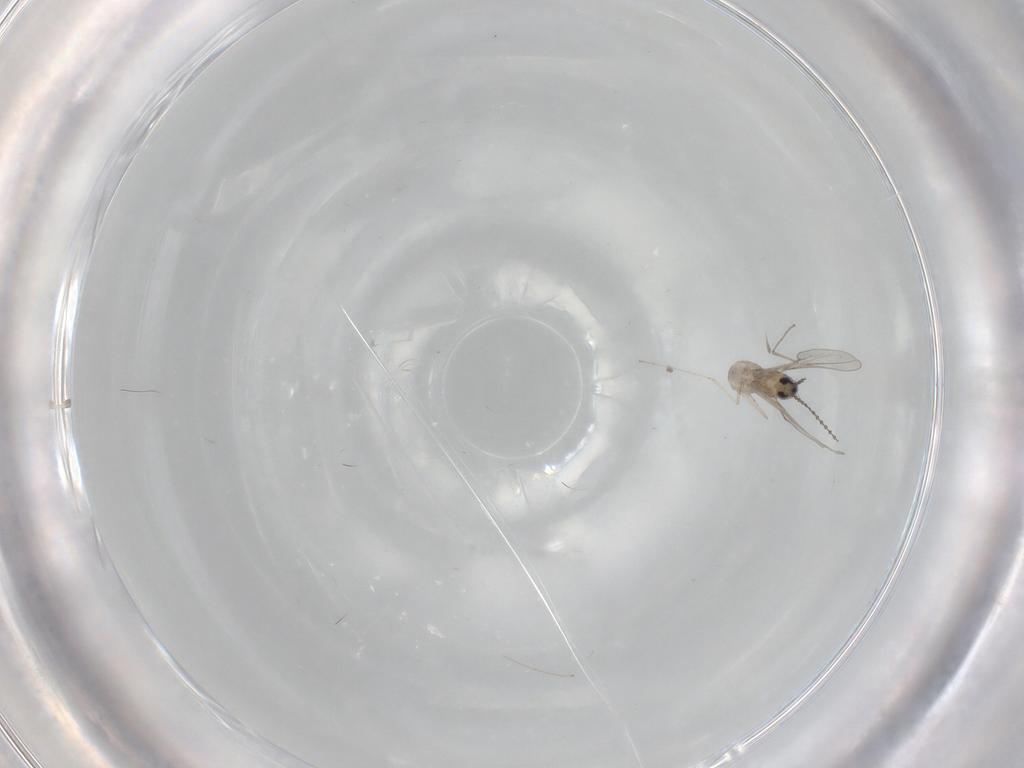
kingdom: Animalia
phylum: Arthropoda
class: Insecta
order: Diptera
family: Cecidomyiidae
